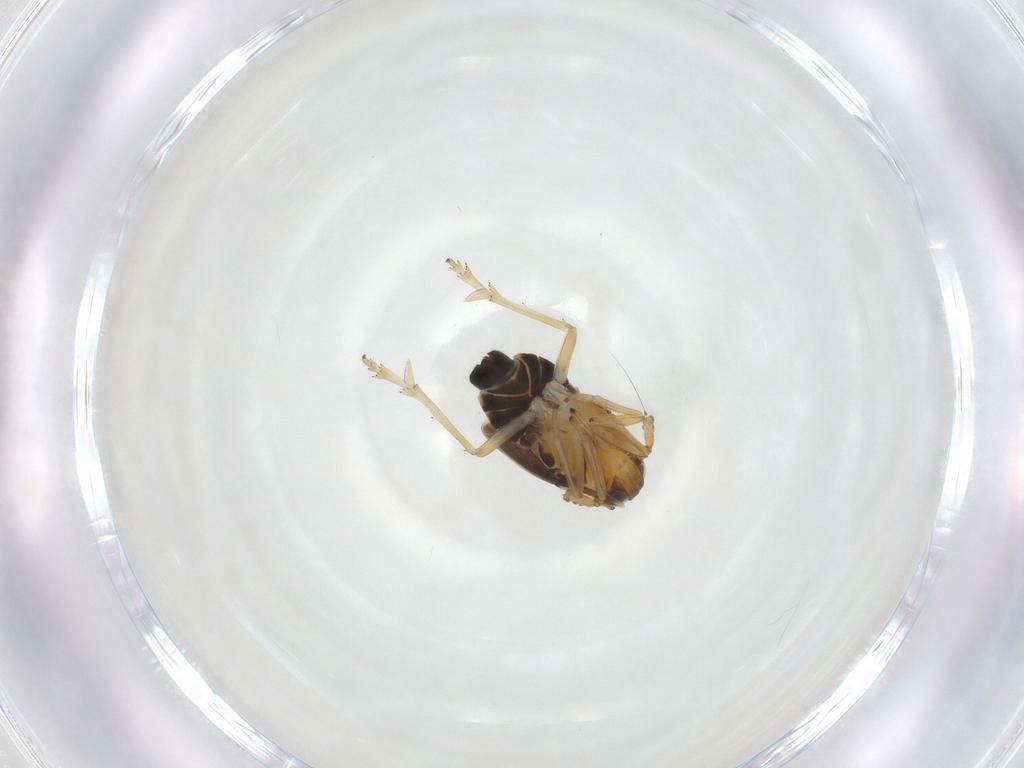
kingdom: Animalia
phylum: Arthropoda
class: Insecta
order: Hemiptera
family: Delphacidae
